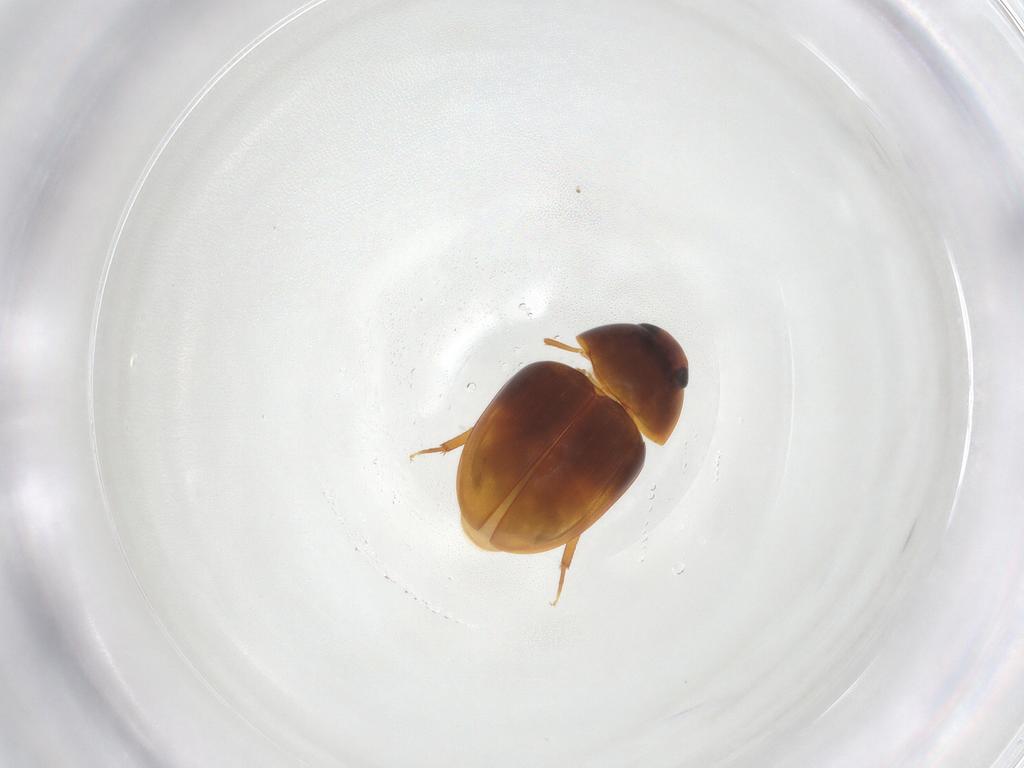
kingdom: Animalia
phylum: Arthropoda
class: Insecta
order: Coleoptera
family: Phalacridae
